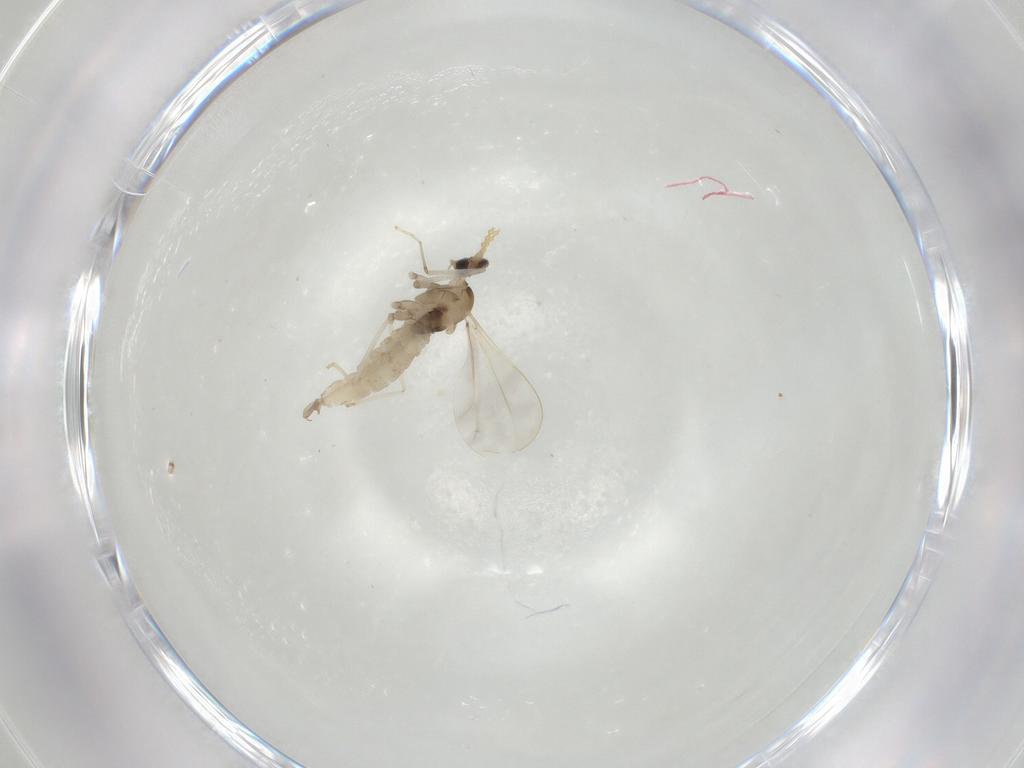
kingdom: Animalia
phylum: Arthropoda
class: Insecta
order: Diptera
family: Cecidomyiidae
